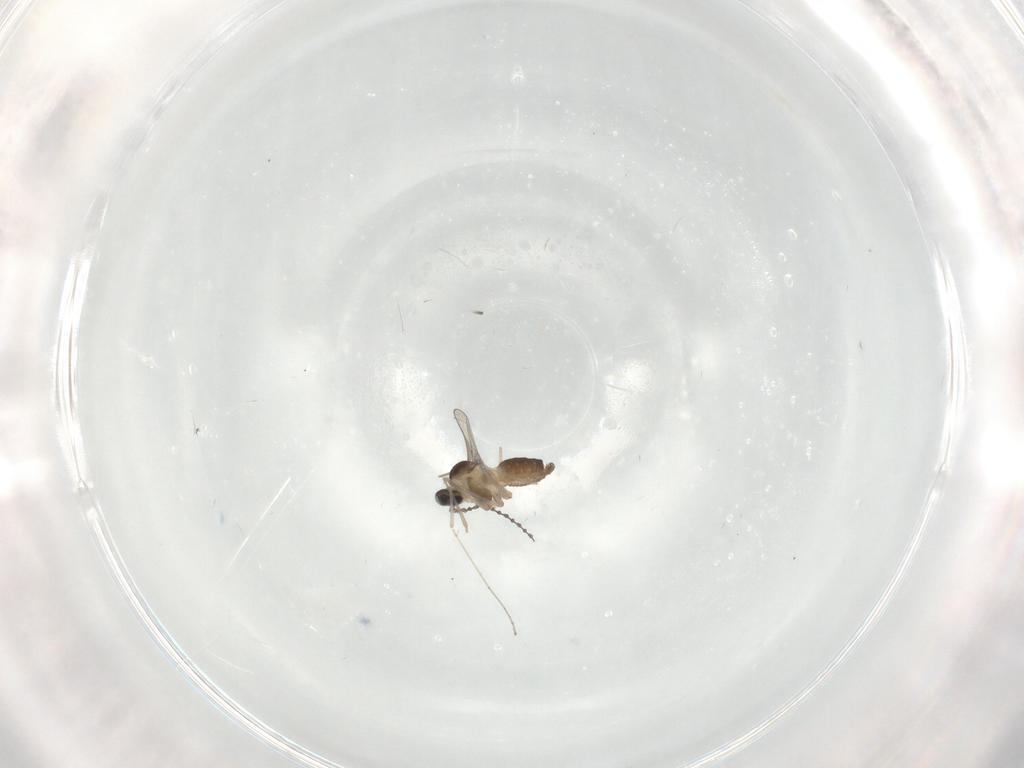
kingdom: Animalia
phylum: Arthropoda
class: Insecta
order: Diptera
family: Cecidomyiidae
